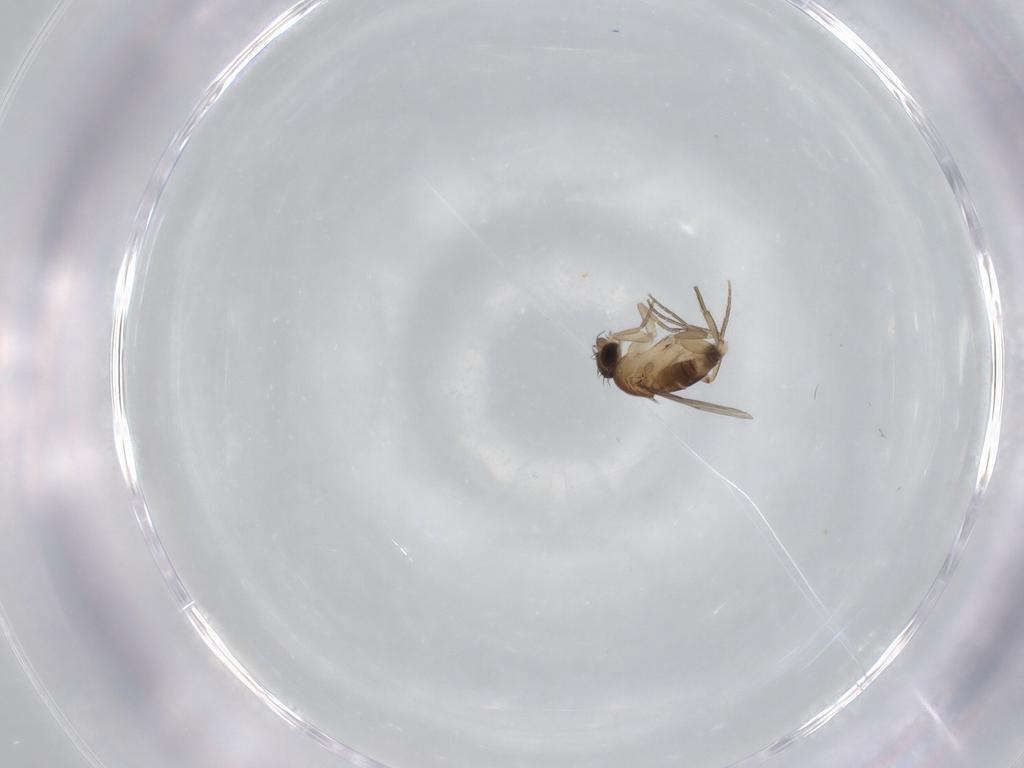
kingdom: Animalia
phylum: Arthropoda
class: Insecta
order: Diptera
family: Phoridae
